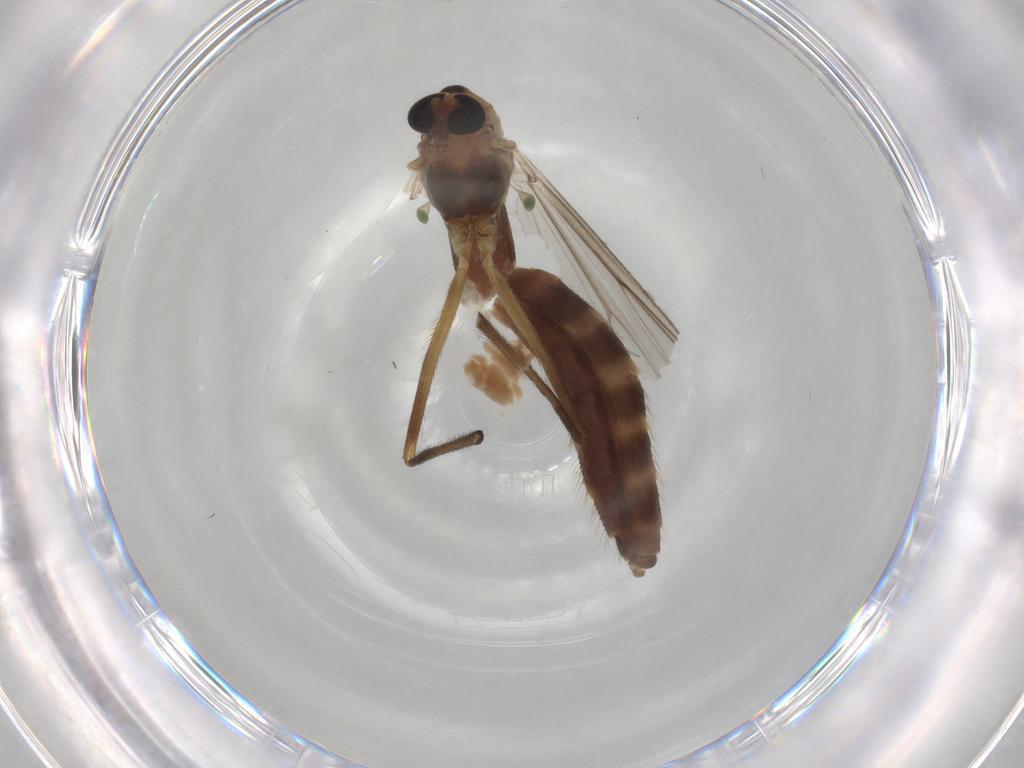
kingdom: Animalia
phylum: Arthropoda
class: Insecta
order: Diptera
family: Chironomidae
